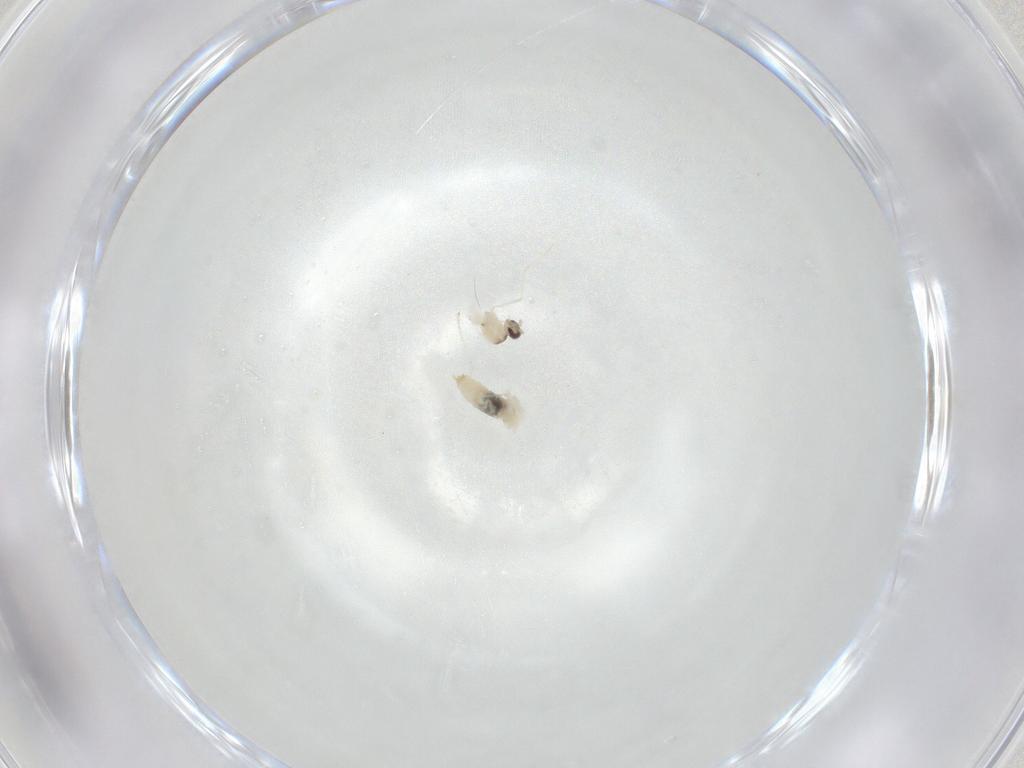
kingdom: Animalia
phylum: Arthropoda
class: Insecta
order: Diptera
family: Cecidomyiidae
